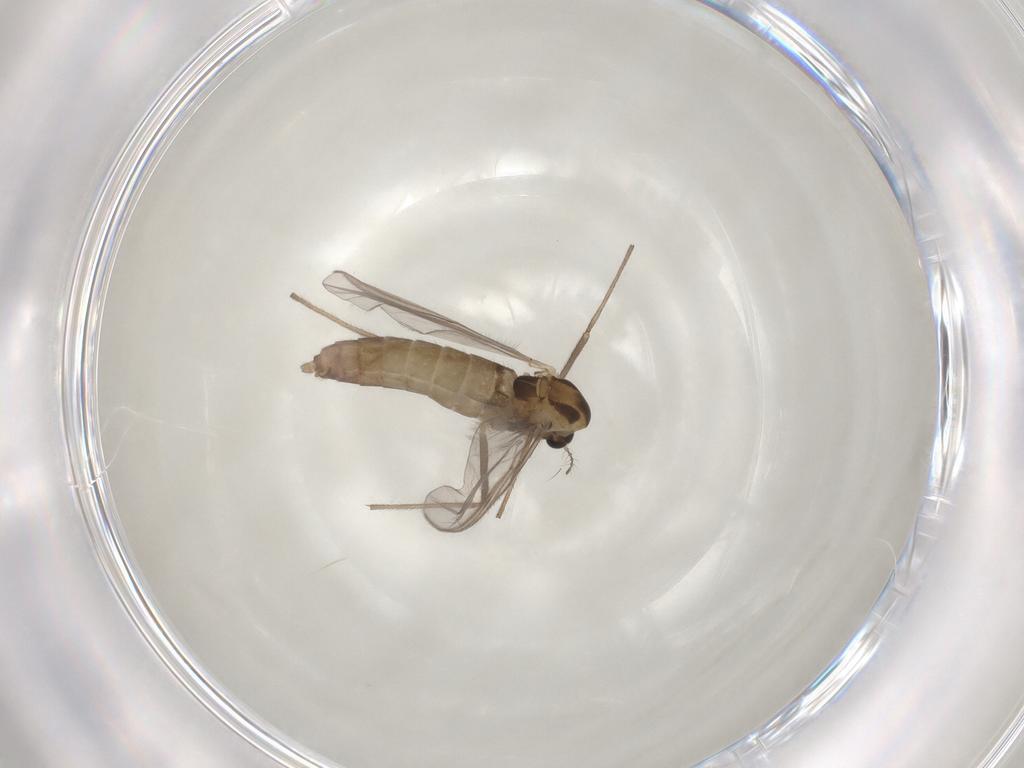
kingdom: Animalia
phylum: Arthropoda
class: Insecta
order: Diptera
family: Chironomidae
